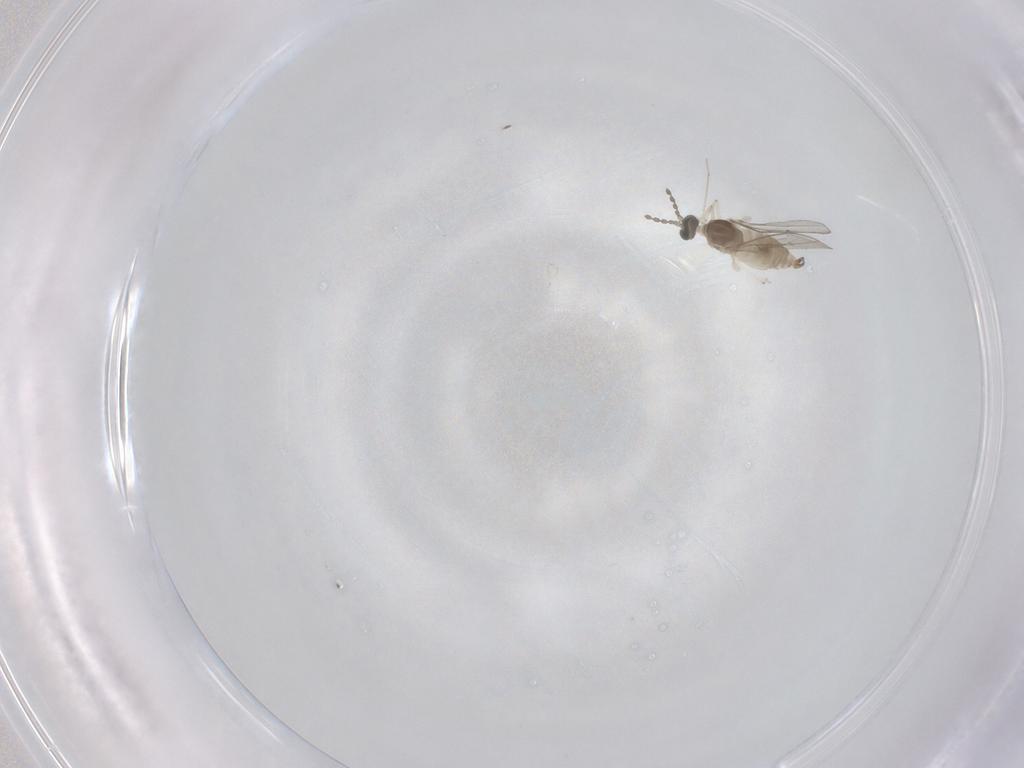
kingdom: Animalia
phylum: Arthropoda
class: Insecta
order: Diptera
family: Cecidomyiidae
